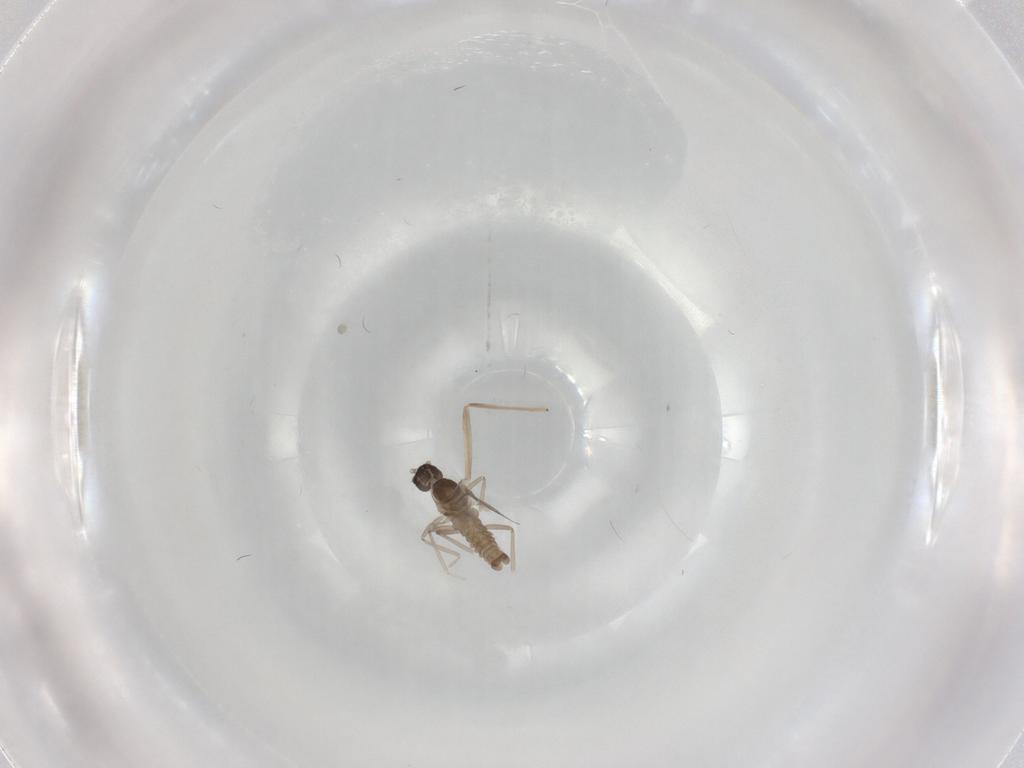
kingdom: Animalia
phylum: Arthropoda
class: Insecta
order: Diptera
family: Cecidomyiidae
